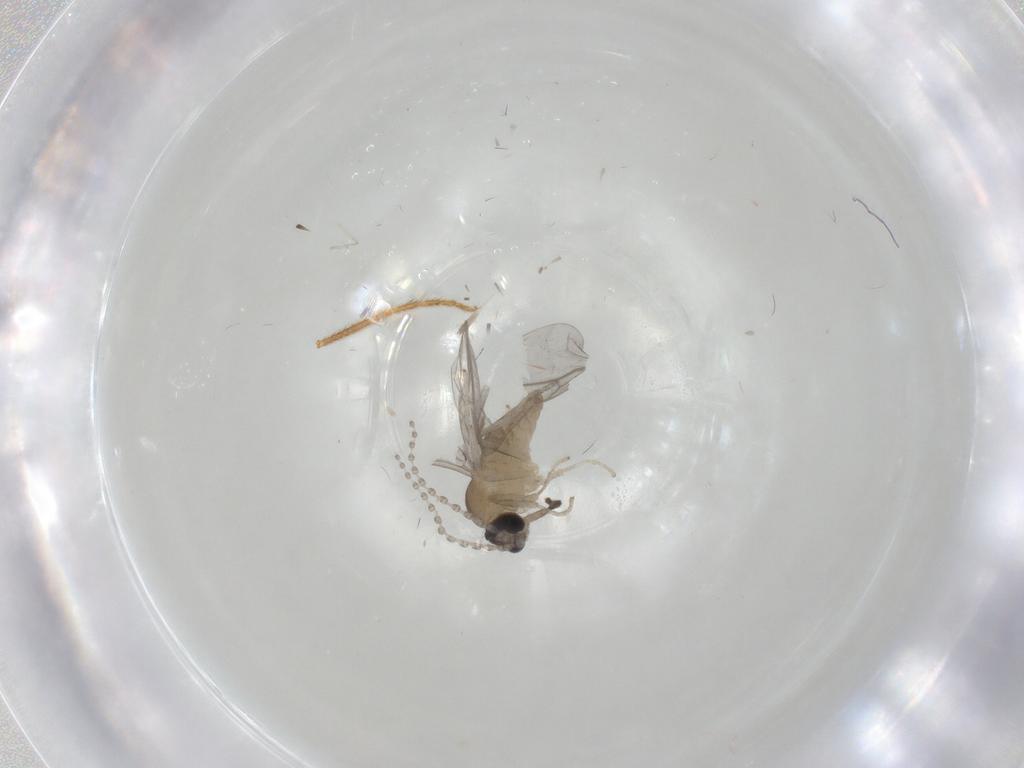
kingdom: Animalia
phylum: Arthropoda
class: Insecta
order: Diptera
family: Cecidomyiidae
